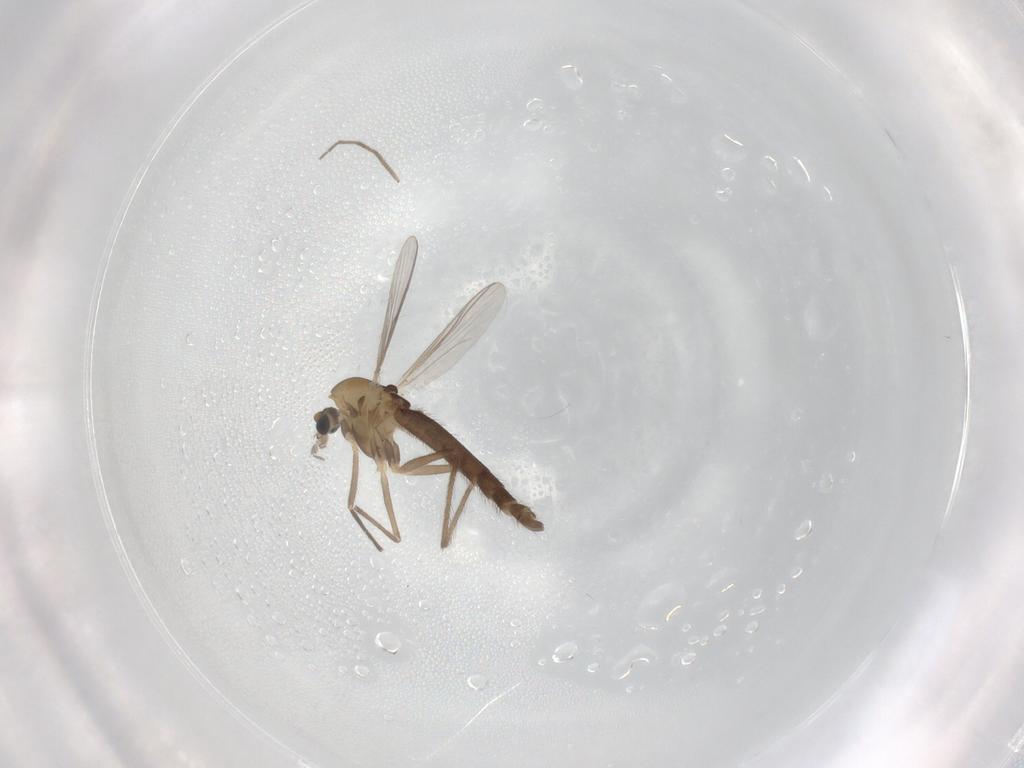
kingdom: Animalia
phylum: Arthropoda
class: Insecta
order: Diptera
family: Chironomidae
